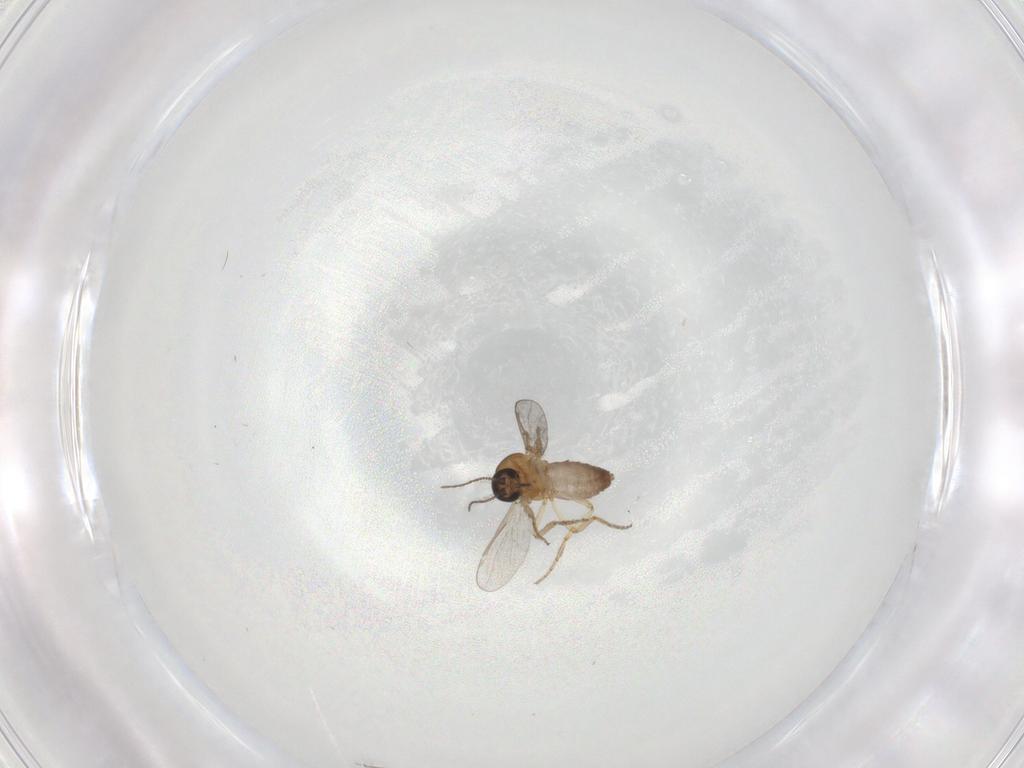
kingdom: Animalia
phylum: Arthropoda
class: Insecta
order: Diptera
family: Ceratopogonidae
